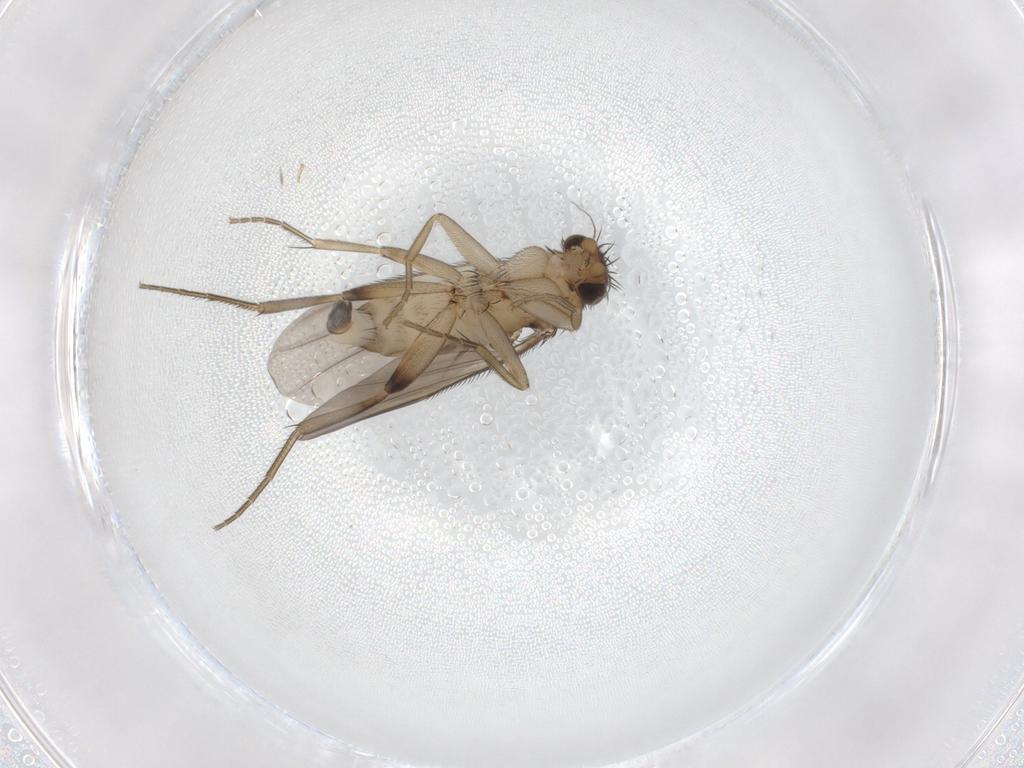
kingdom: Animalia
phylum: Arthropoda
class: Insecta
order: Diptera
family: Phoridae
